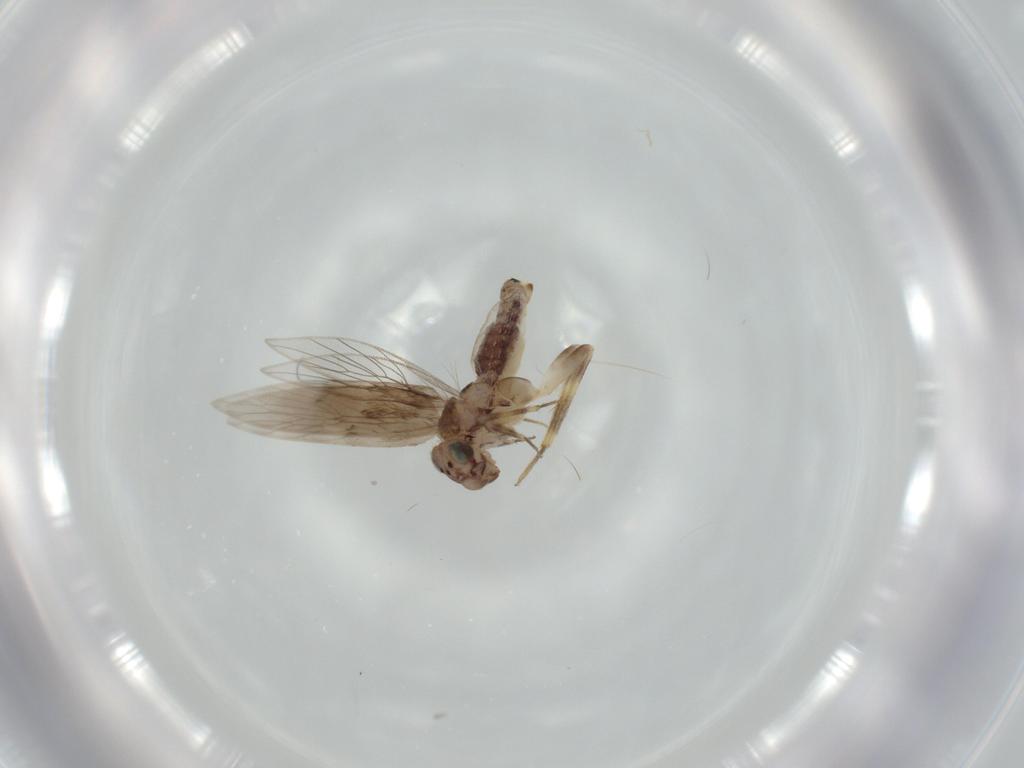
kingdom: Animalia
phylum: Arthropoda
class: Insecta
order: Psocodea
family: Lepidopsocidae
